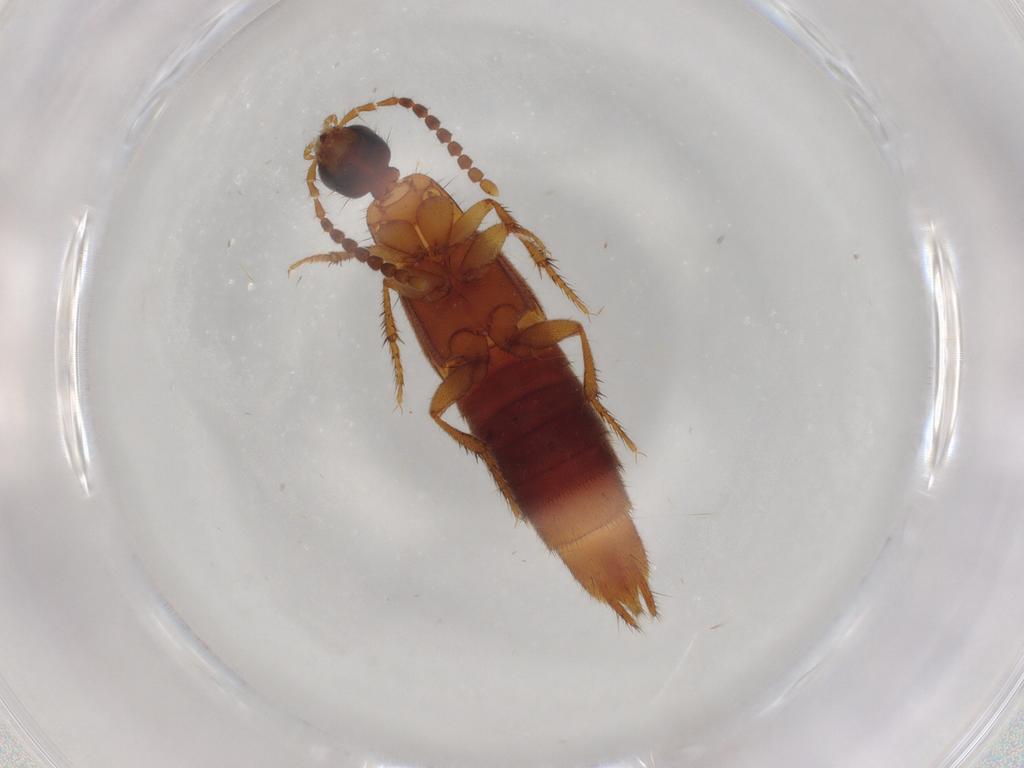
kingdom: Animalia
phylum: Arthropoda
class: Insecta
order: Coleoptera
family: Staphylinidae
